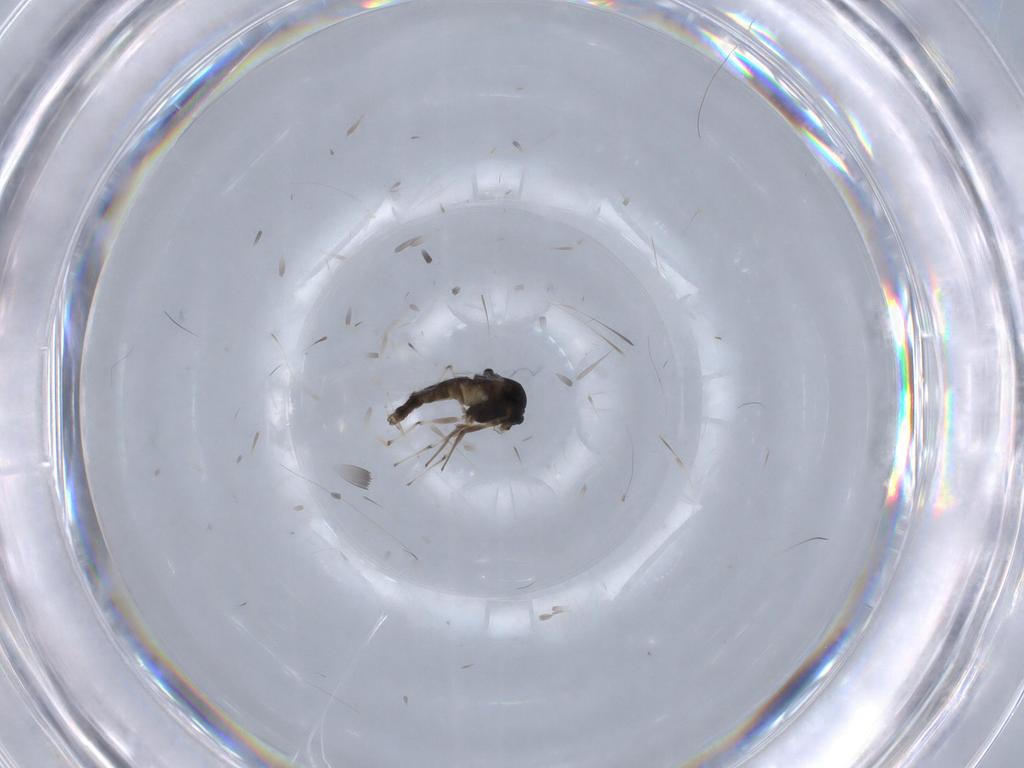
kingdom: Animalia
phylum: Arthropoda
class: Insecta
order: Diptera
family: Chironomidae
